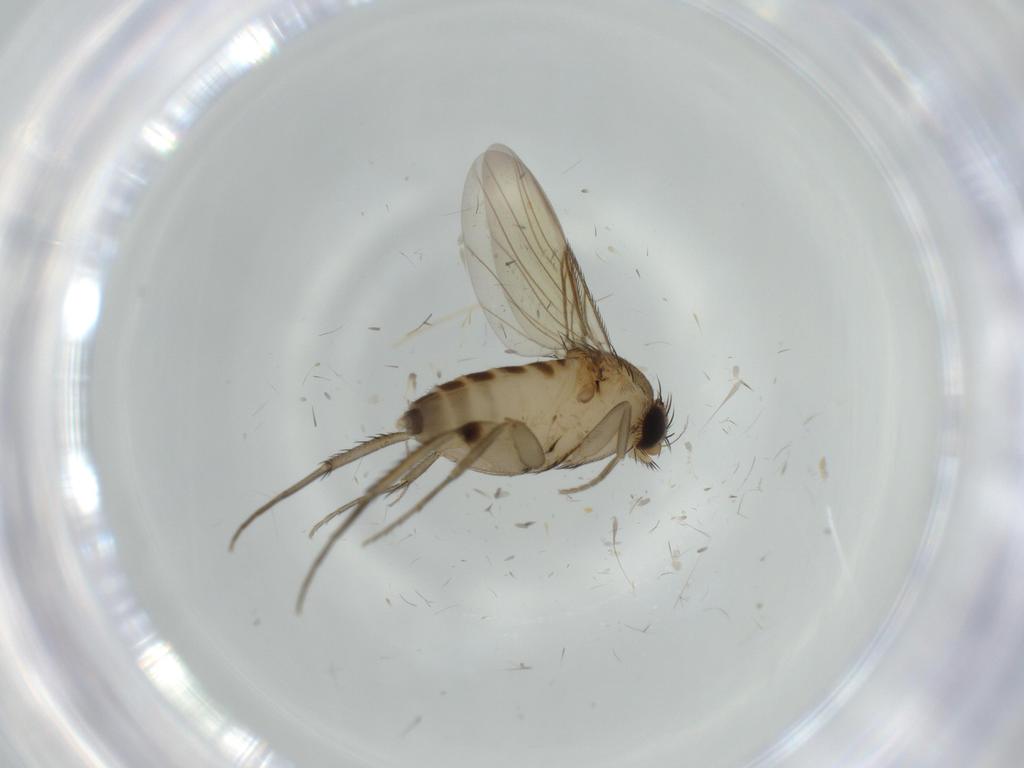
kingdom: Animalia
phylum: Arthropoda
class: Insecta
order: Diptera
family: Phoridae
